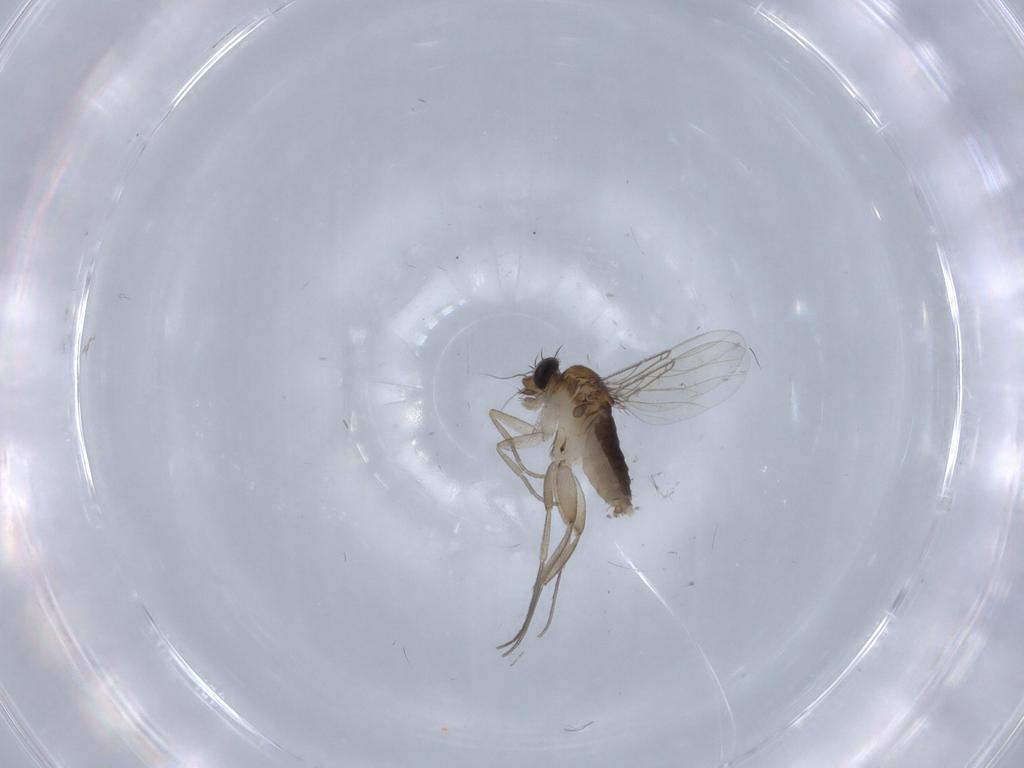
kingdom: Animalia
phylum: Arthropoda
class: Insecta
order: Diptera
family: Phoridae
